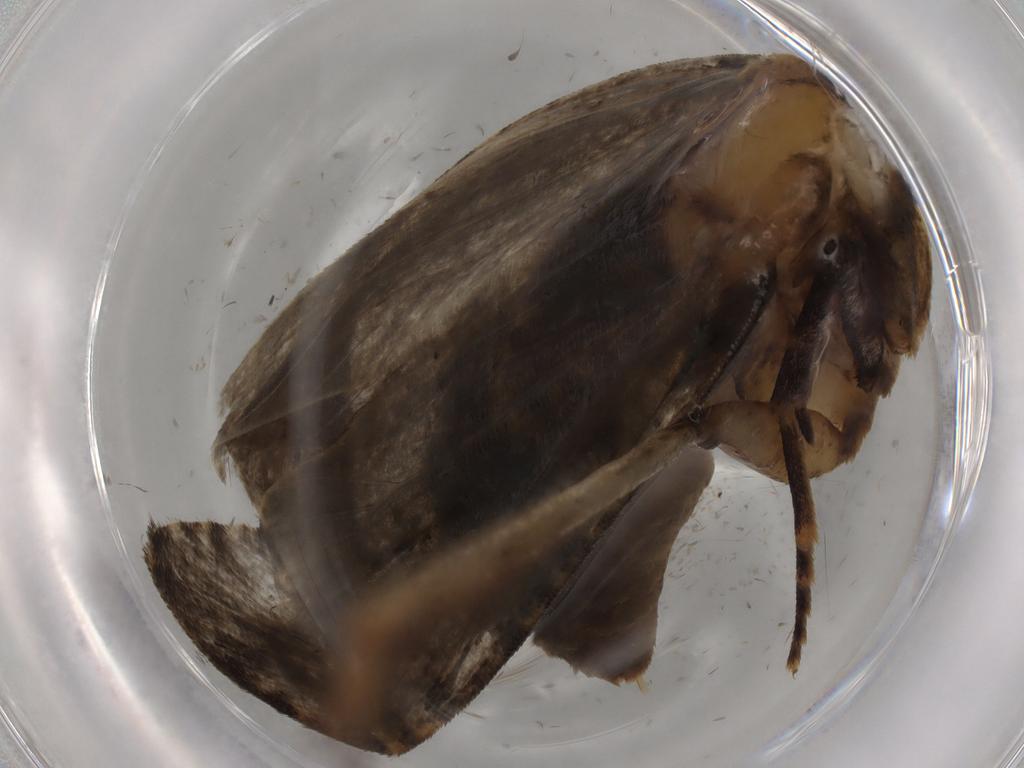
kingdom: Animalia
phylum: Arthropoda
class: Insecta
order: Lepidoptera
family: Tineidae
